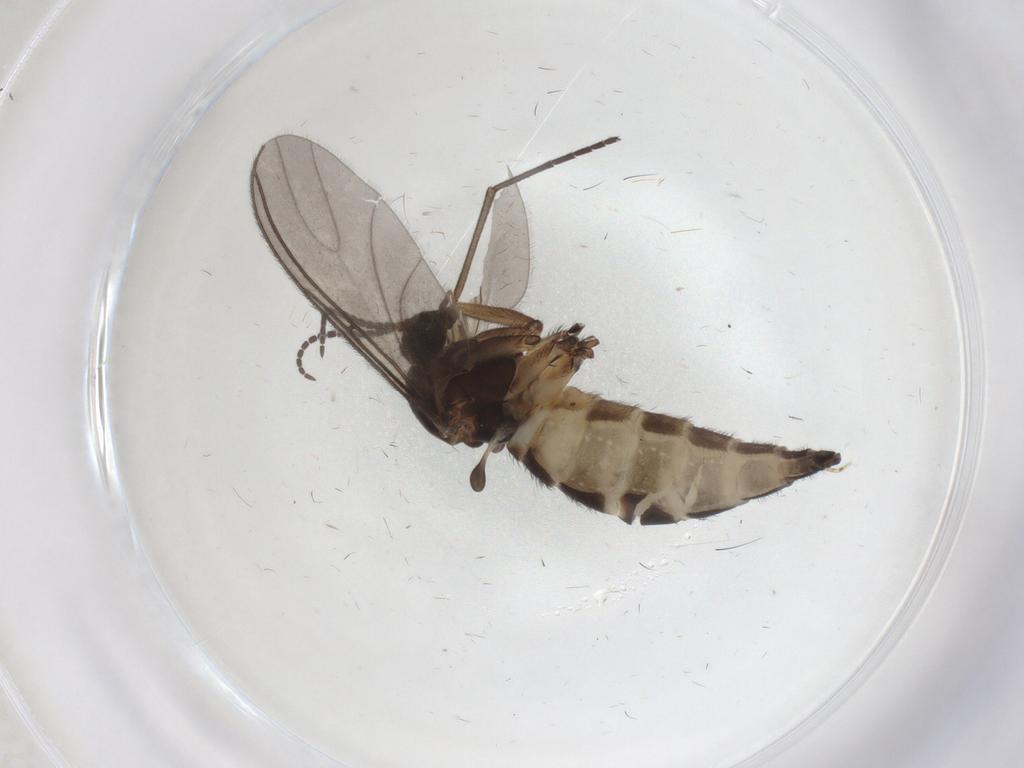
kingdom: Animalia
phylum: Arthropoda
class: Insecta
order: Diptera
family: Sciaridae
